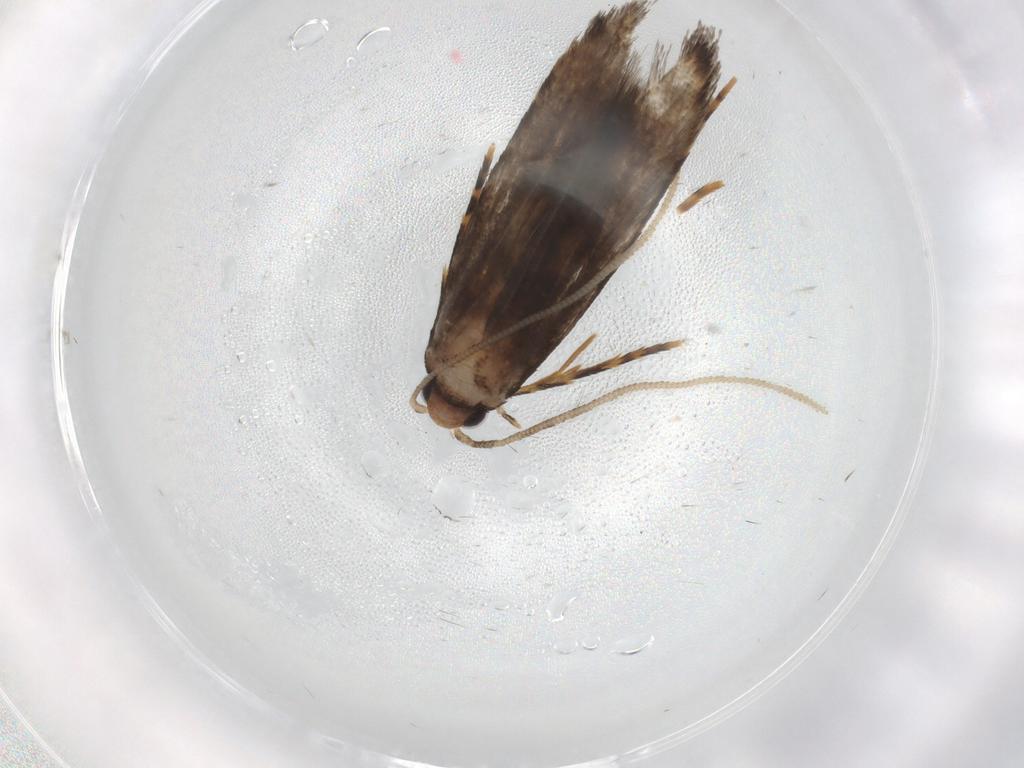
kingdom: Animalia
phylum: Arthropoda
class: Insecta
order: Lepidoptera
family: Tineidae
